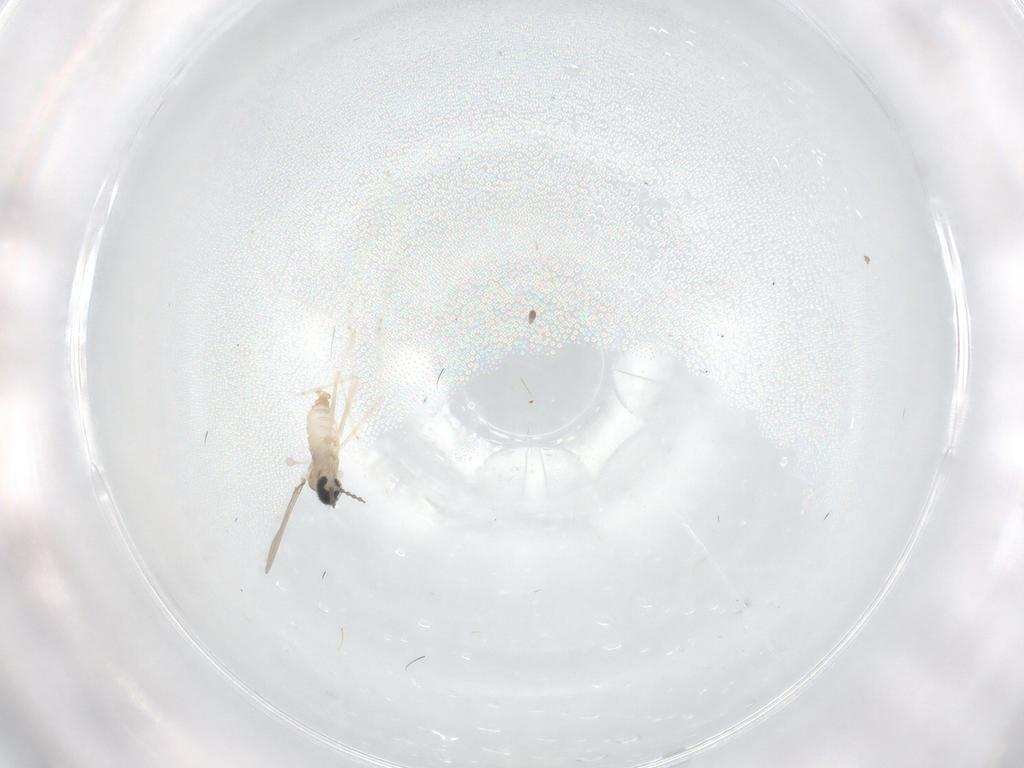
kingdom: Animalia
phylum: Arthropoda
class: Insecta
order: Diptera
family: Cecidomyiidae
